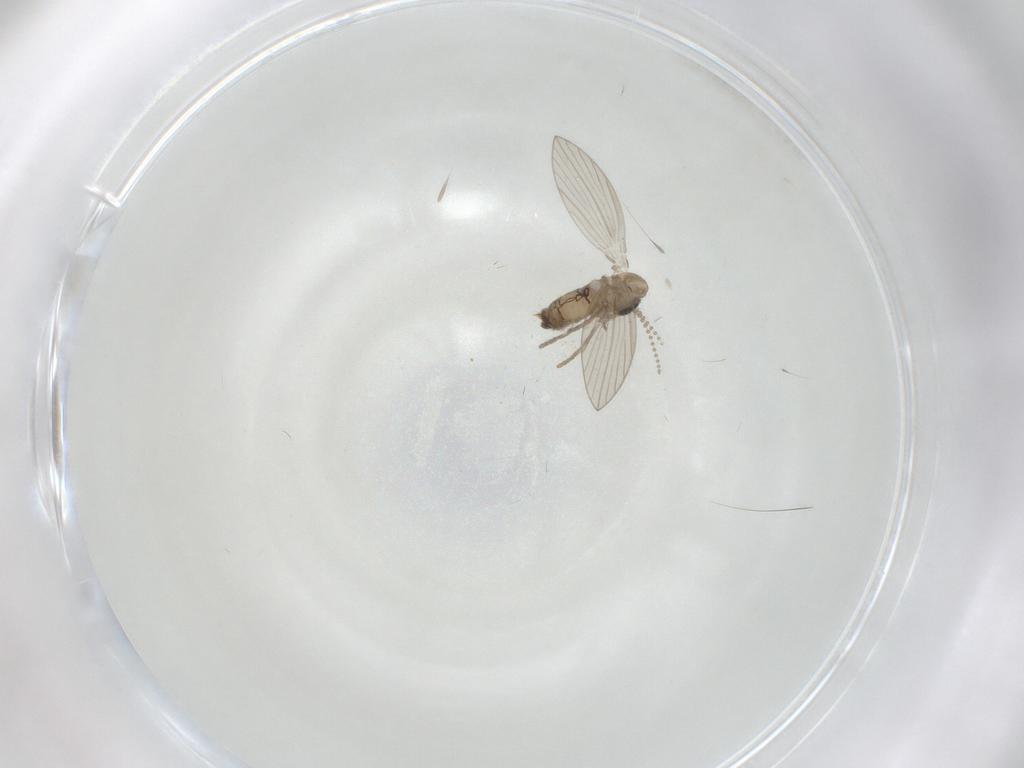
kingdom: Animalia
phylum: Arthropoda
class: Insecta
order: Diptera
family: Psychodidae
